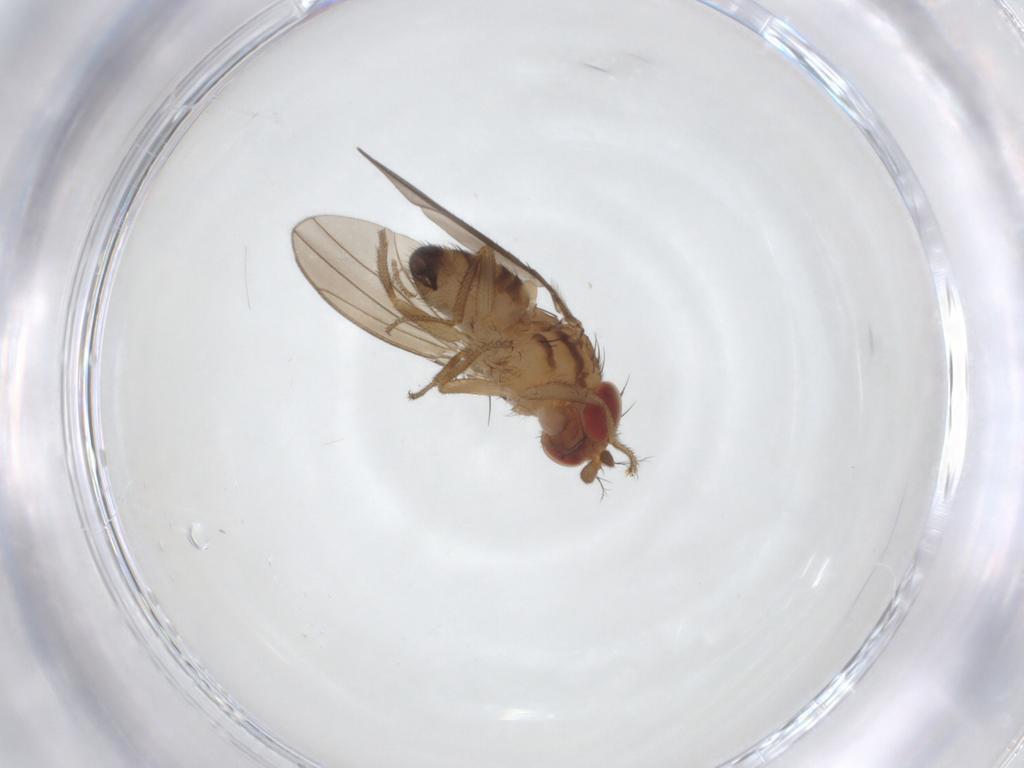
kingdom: Animalia
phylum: Arthropoda
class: Insecta
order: Diptera
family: Drosophilidae
